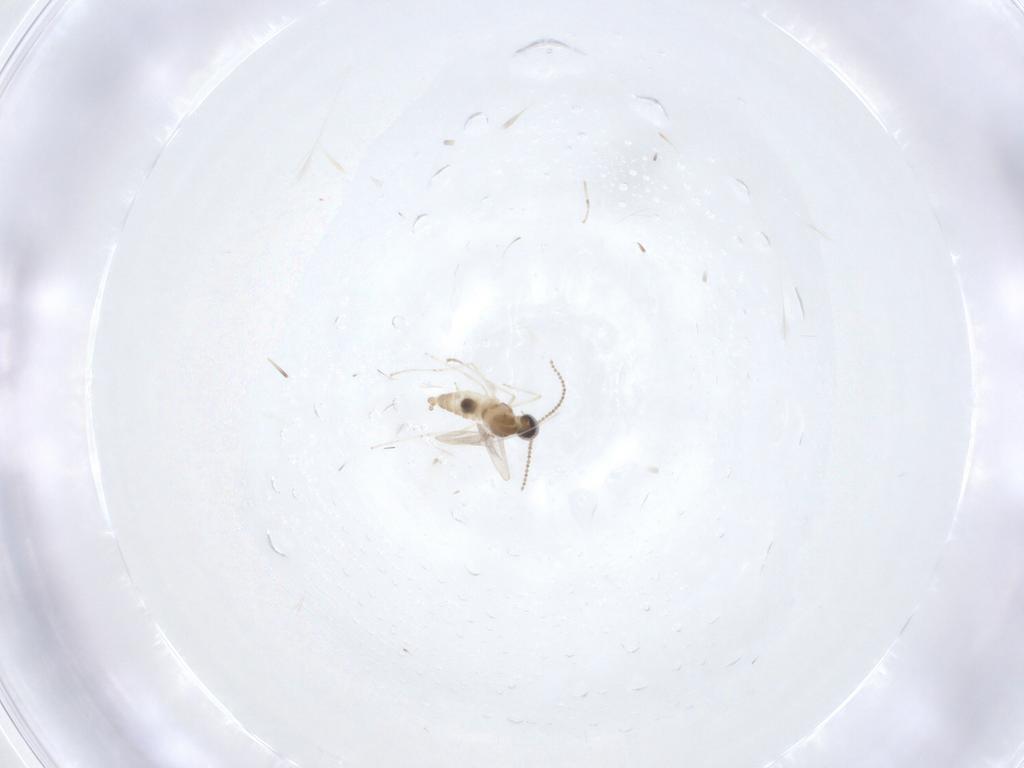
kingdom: Animalia
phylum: Arthropoda
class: Insecta
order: Diptera
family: Cecidomyiidae
